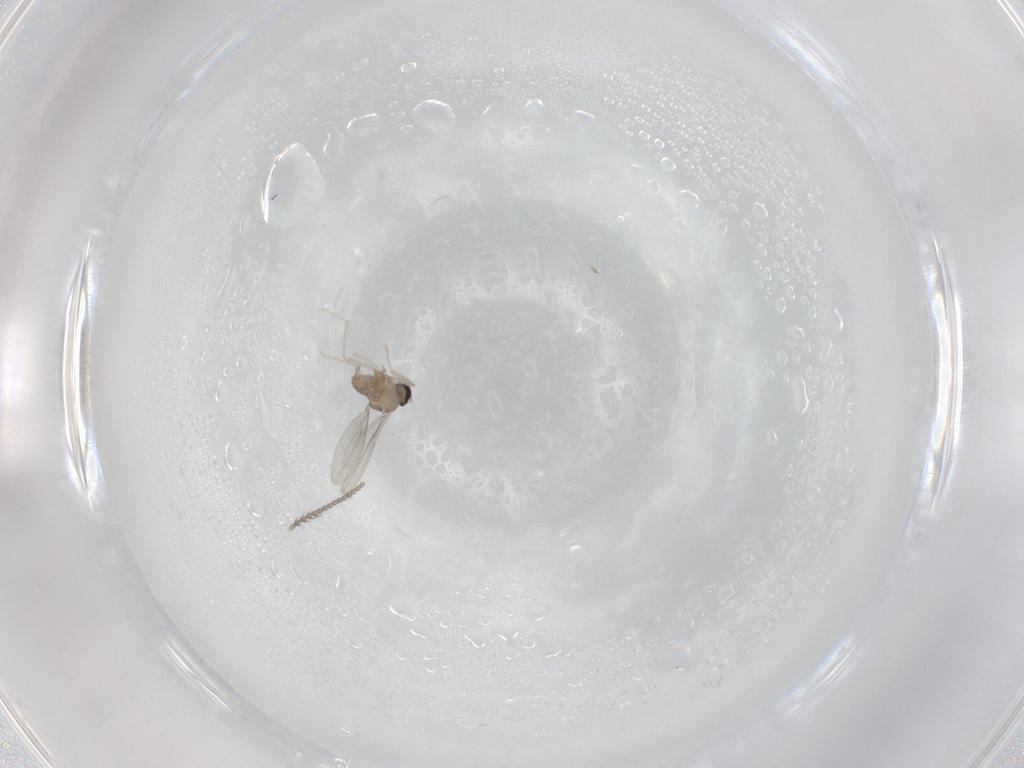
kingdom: Animalia
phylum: Arthropoda
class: Insecta
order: Diptera
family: Cecidomyiidae
